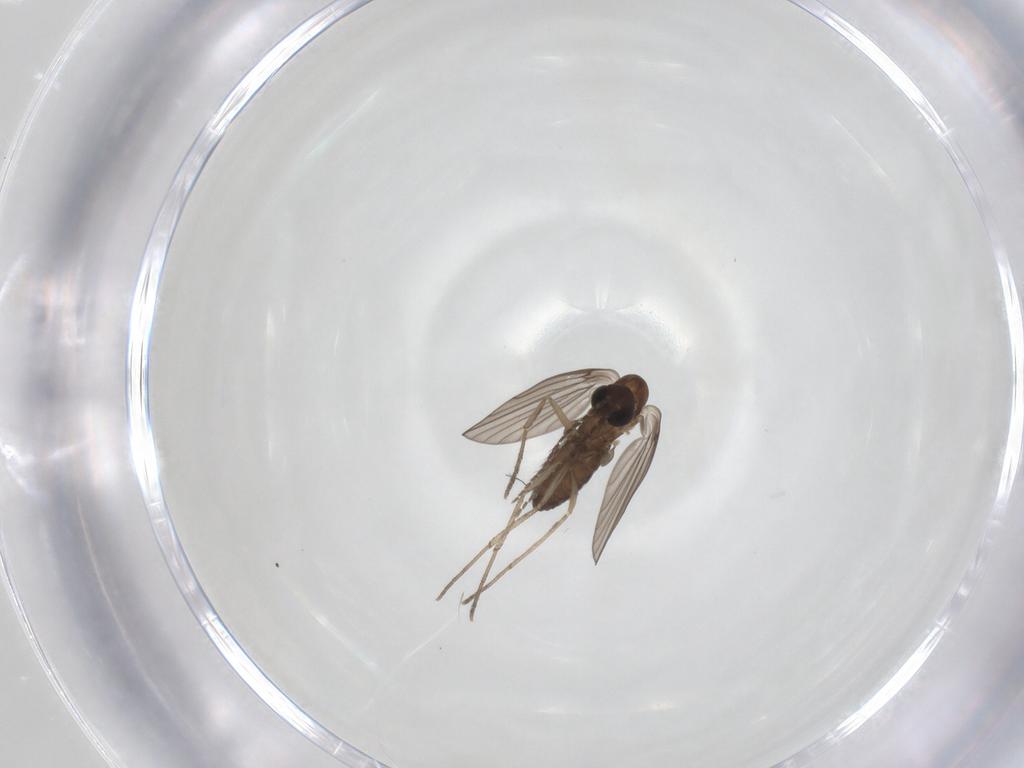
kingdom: Animalia
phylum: Arthropoda
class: Insecta
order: Diptera
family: Psychodidae
